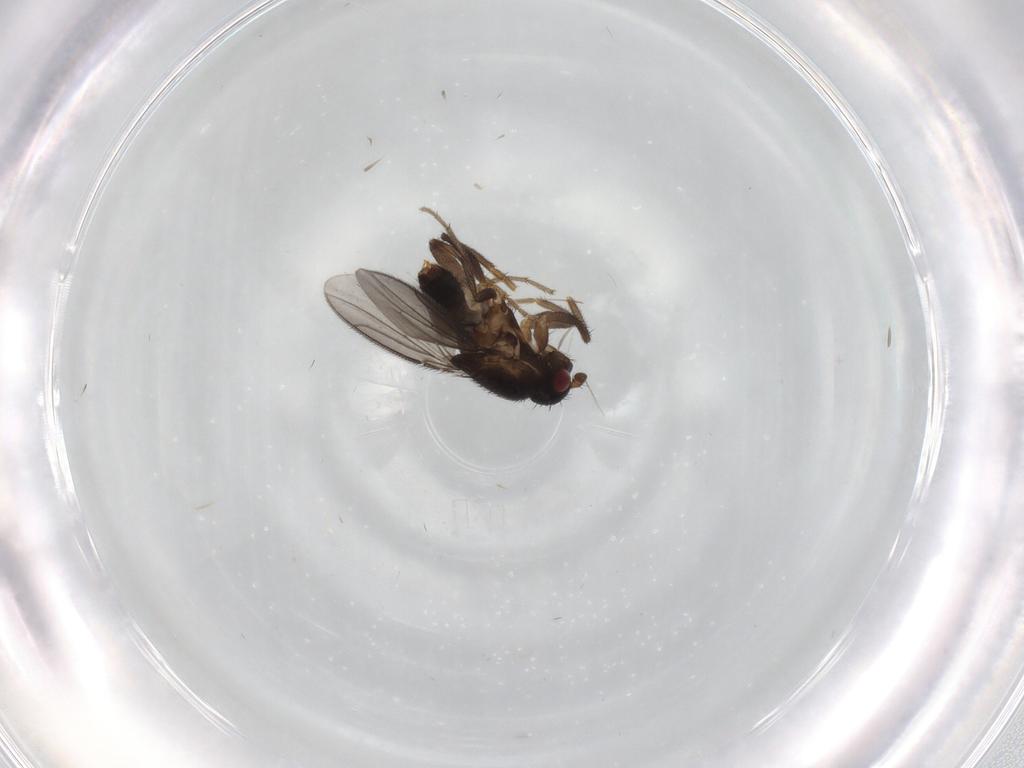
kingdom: Animalia
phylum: Arthropoda
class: Insecta
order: Diptera
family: Sphaeroceridae
